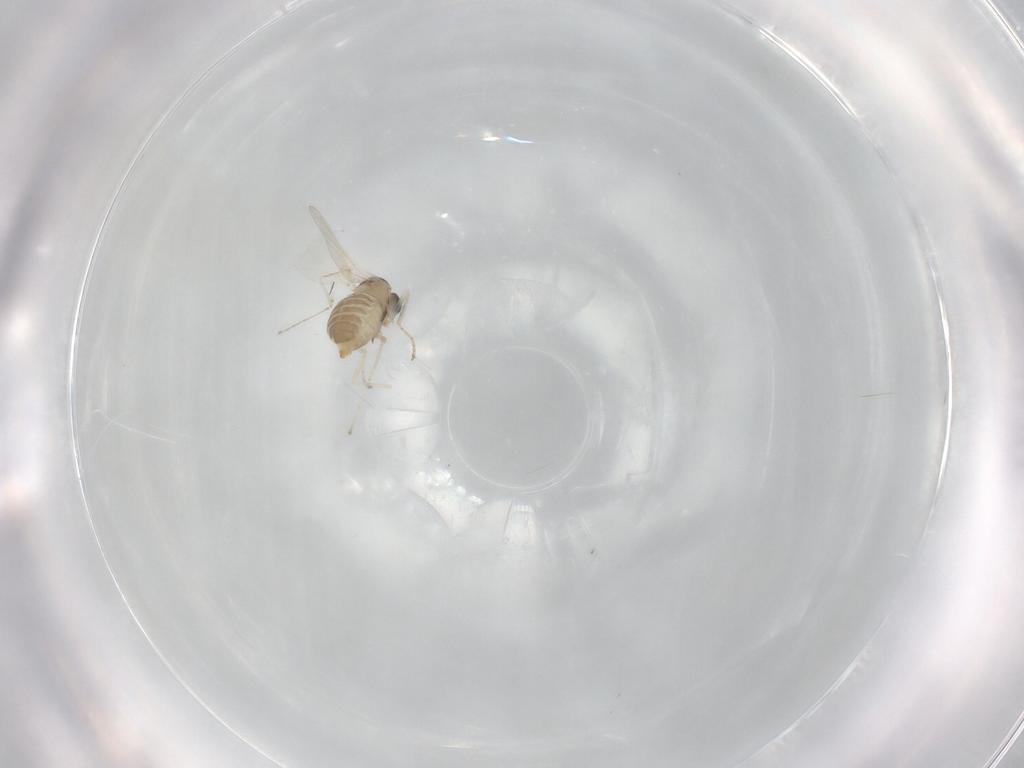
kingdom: Animalia
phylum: Arthropoda
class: Insecta
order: Diptera
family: Cecidomyiidae
